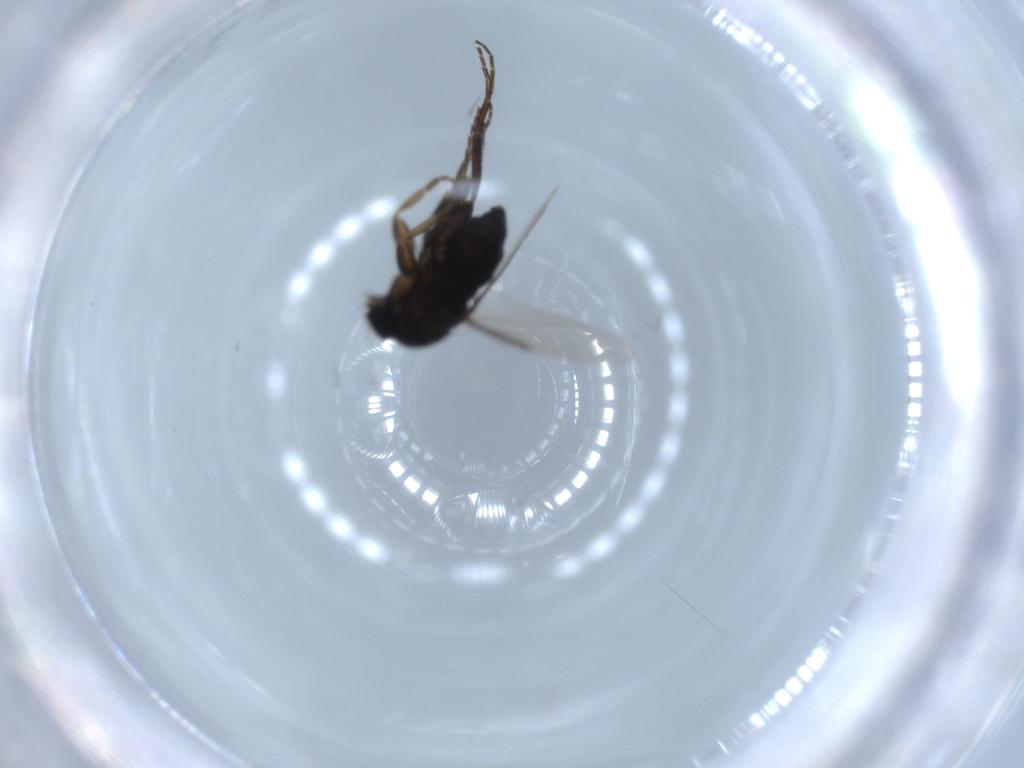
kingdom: Animalia
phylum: Arthropoda
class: Insecta
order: Diptera
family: Phoridae
